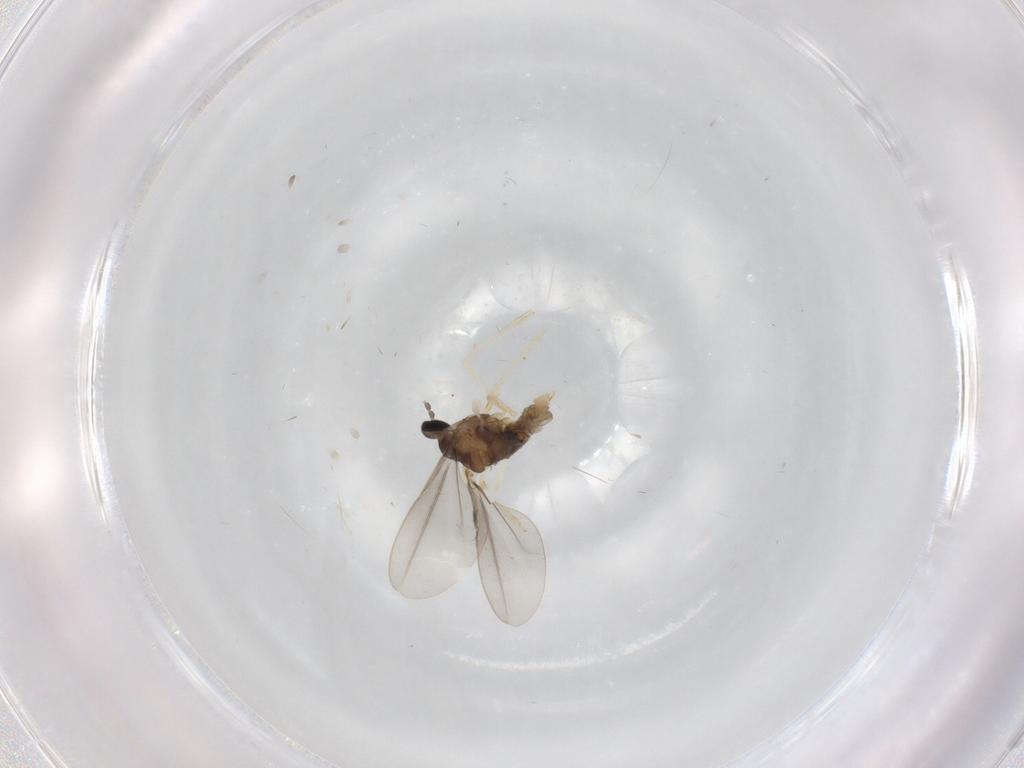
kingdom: Animalia
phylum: Arthropoda
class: Insecta
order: Diptera
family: Cecidomyiidae
